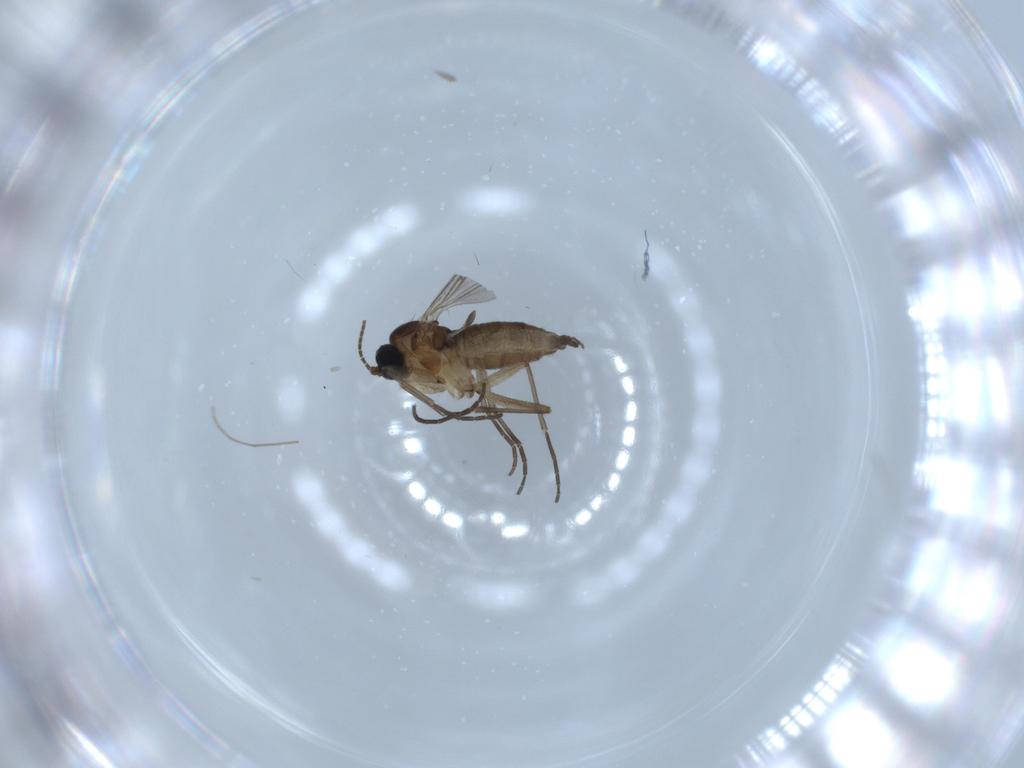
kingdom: Animalia
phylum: Arthropoda
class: Insecta
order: Diptera
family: Sciaridae
